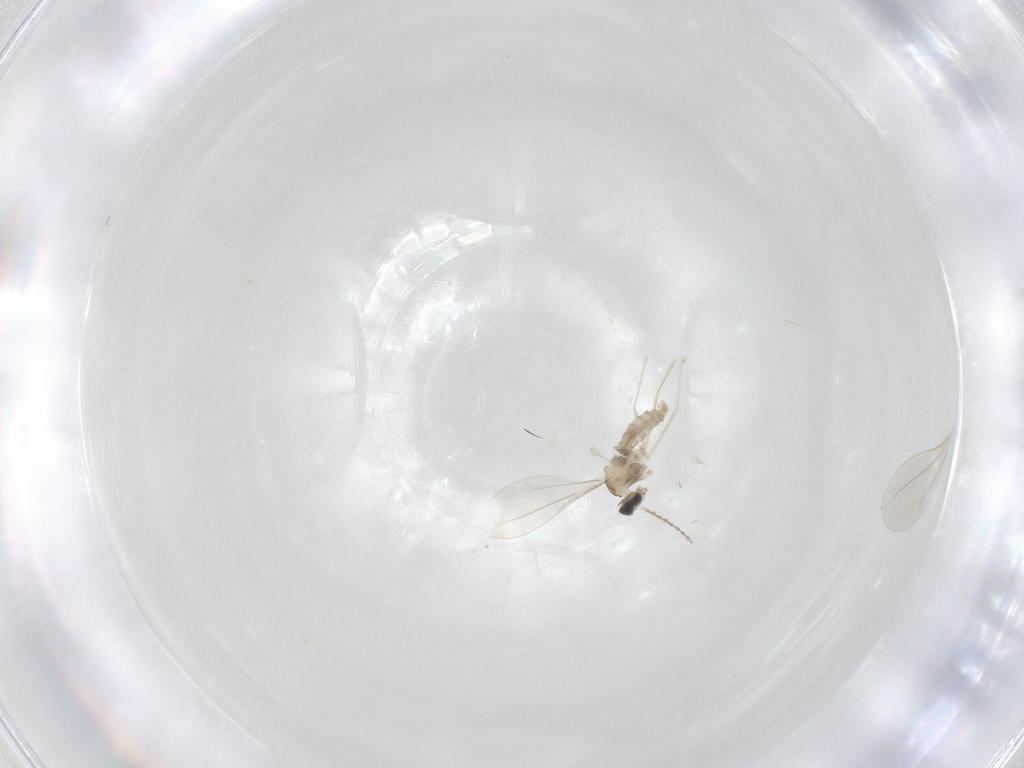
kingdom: Animalia
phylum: Arthropoda
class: Insecta
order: Diptera
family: Cecidomyiidae
